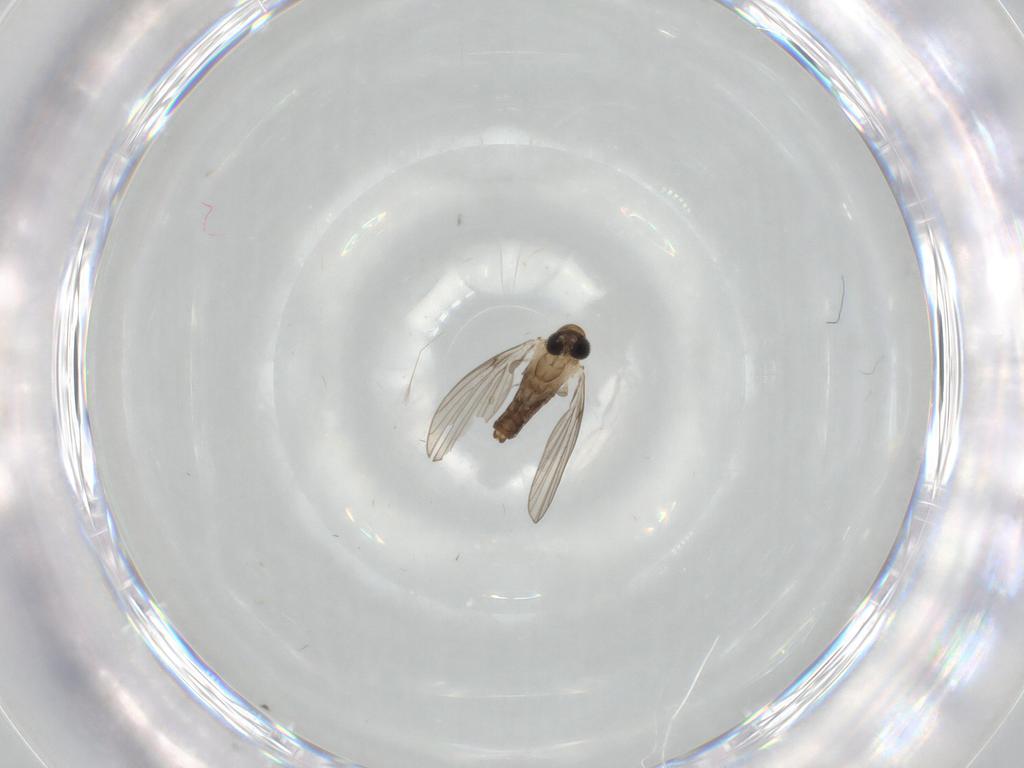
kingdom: Animalia
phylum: Arthropoda
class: Insecta
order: Diptera
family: Psychodidae
